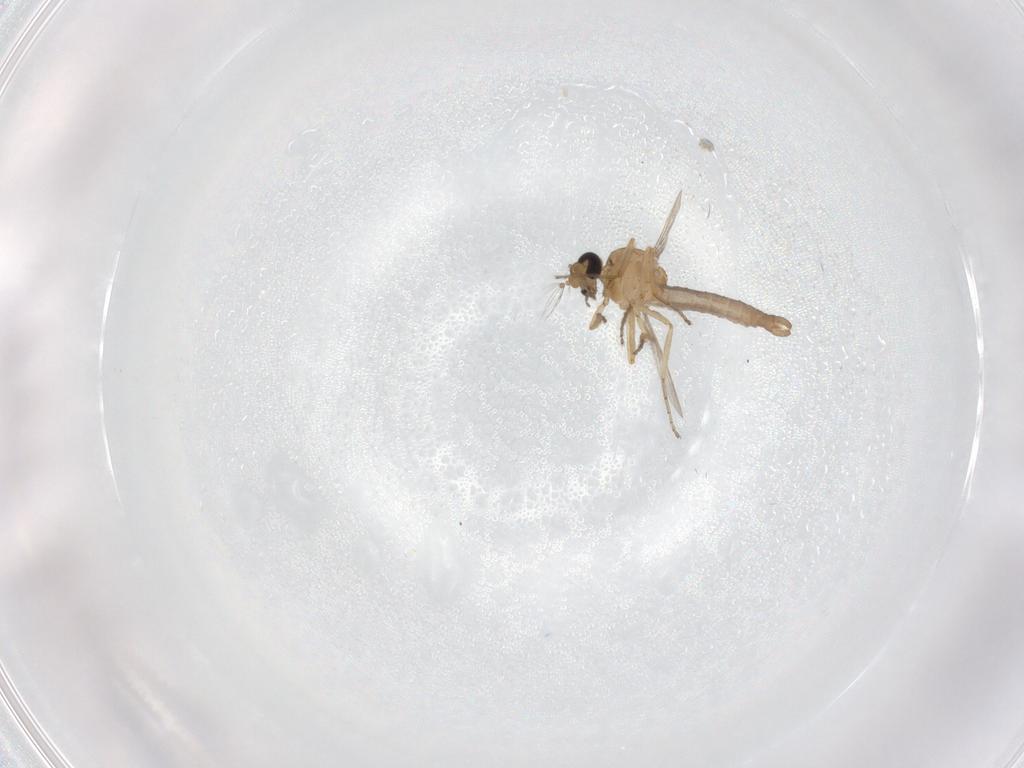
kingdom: Animalia
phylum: Arthropoda
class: Insecta
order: Diptera
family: Ceratopogonidae
